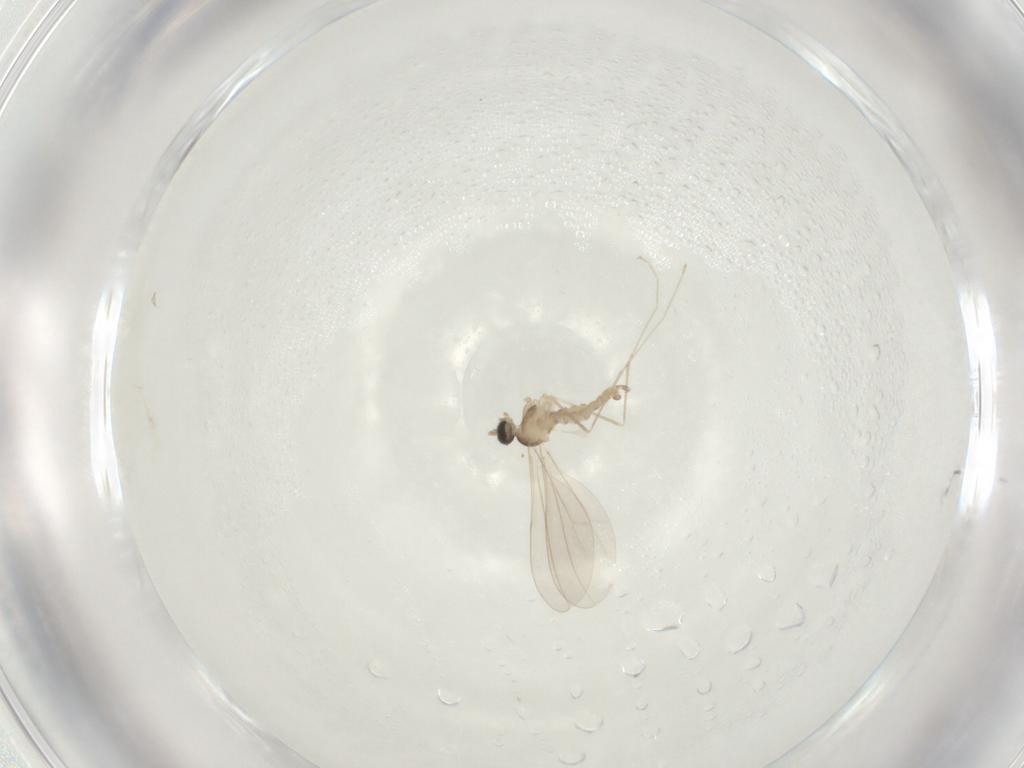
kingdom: Animalia
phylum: Arthropoda
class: Insecta
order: Diptera
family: Cecidomyiidae
